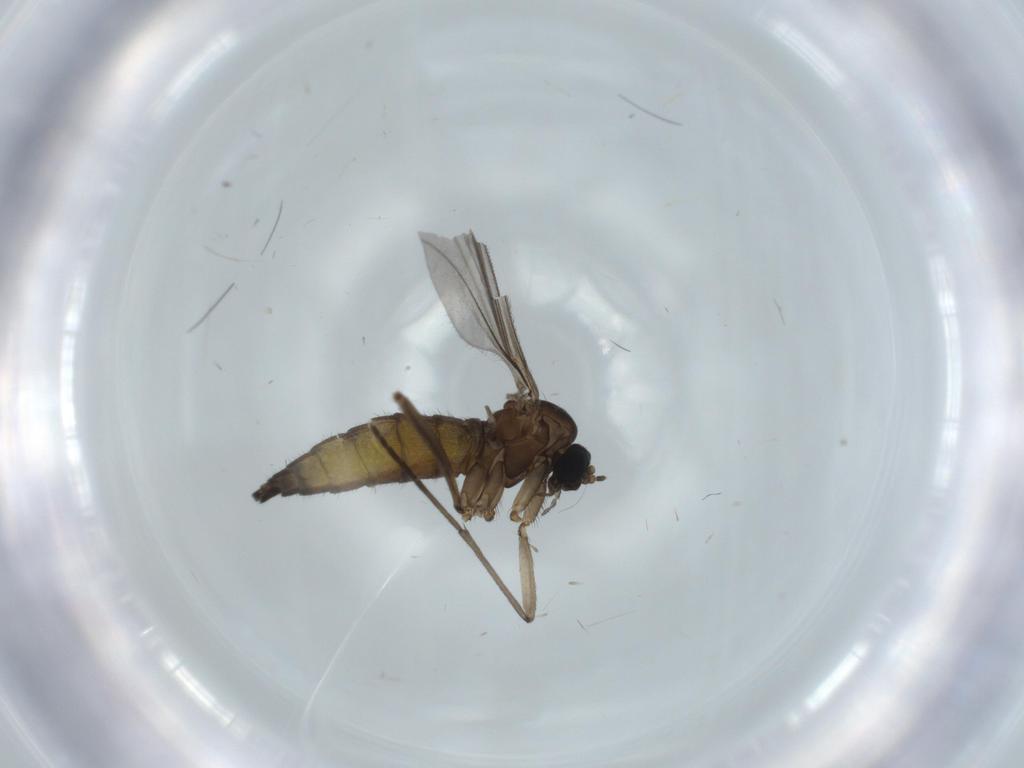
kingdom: Animalia
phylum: Arthropoda
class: Insecta
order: Diptera
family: Sciaridae
